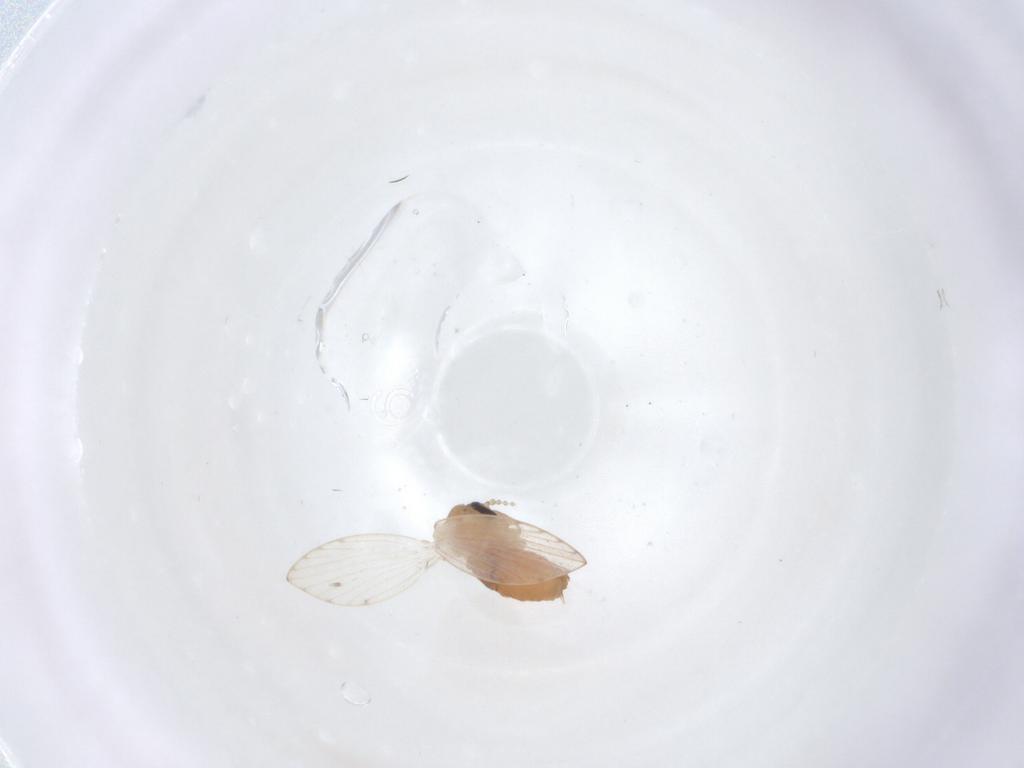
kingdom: Animalia
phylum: Arthropoda
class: Insecta
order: Diptera
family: Psychodidae
